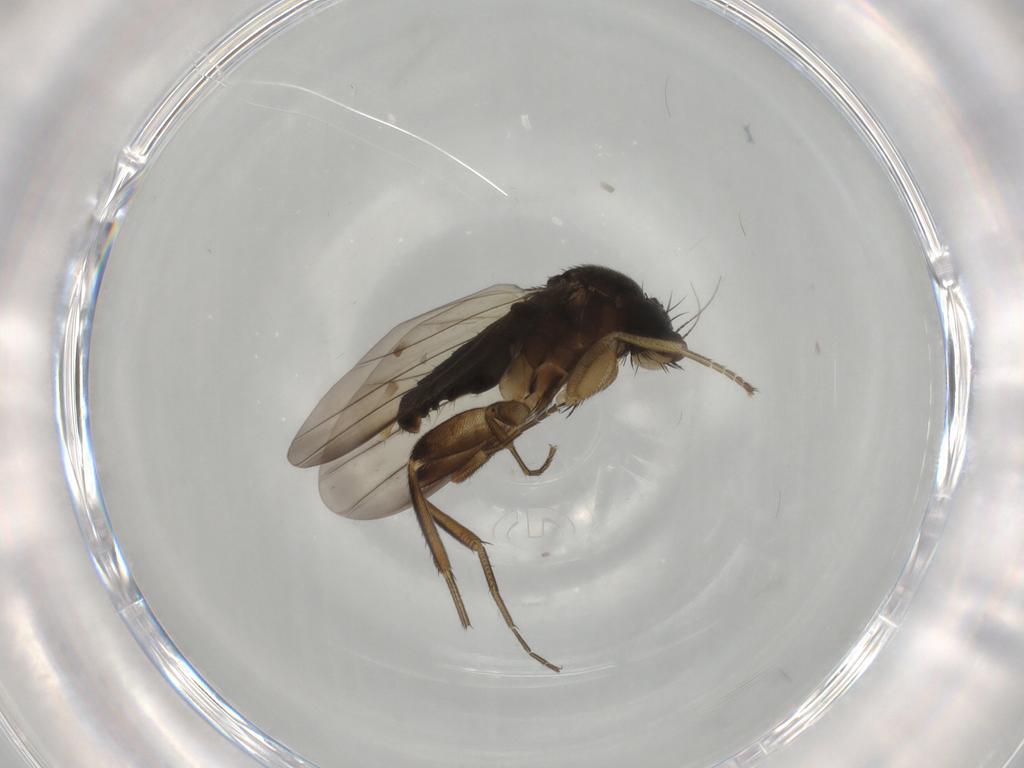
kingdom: Animalia
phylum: Arthropoda
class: Insecta
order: Diptera
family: Phoridae
